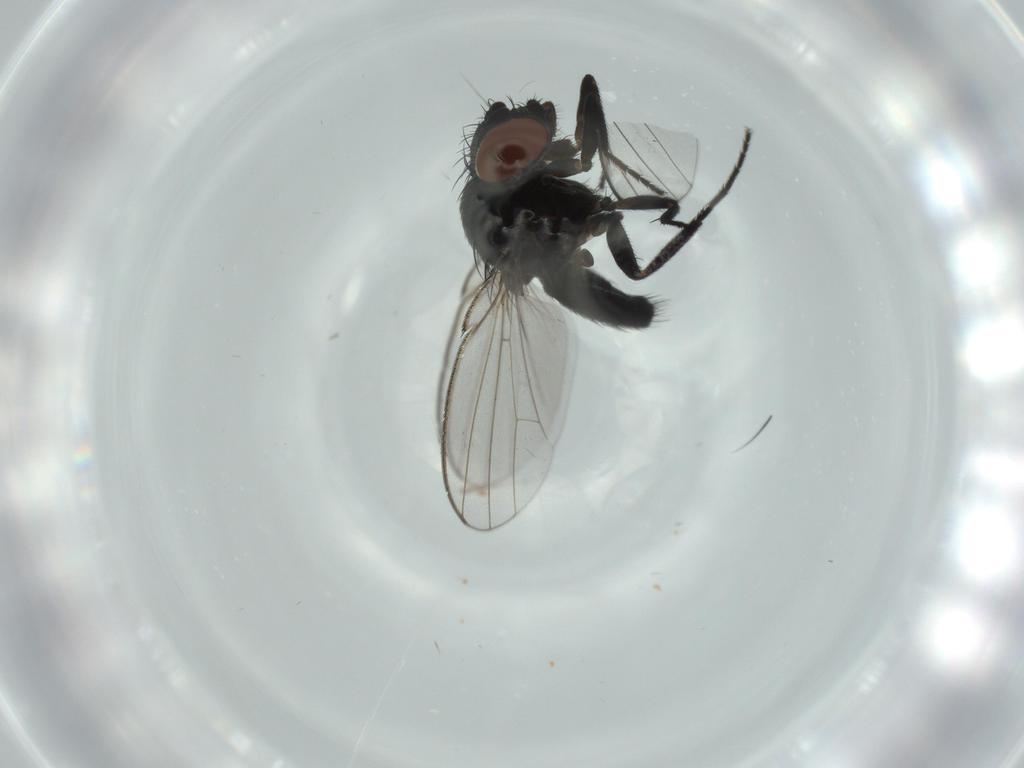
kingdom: Animalia
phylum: Arthropoda
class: Insecta
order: Diptera
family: Milichiidae
